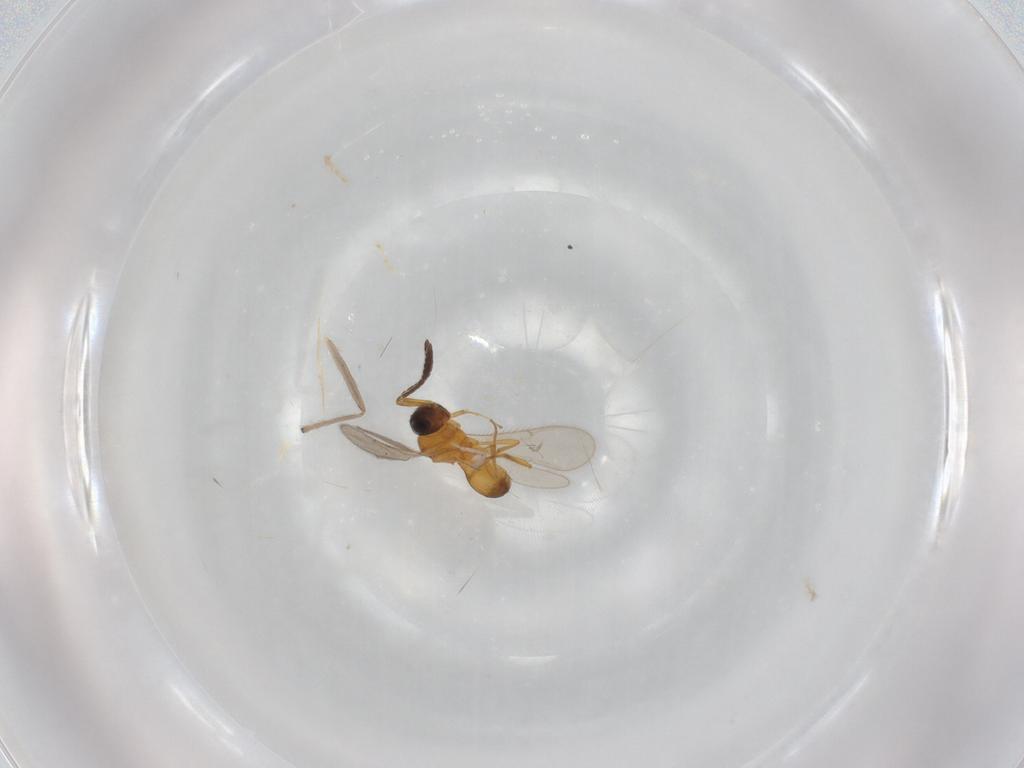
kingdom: Animalia
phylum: Arthropoda
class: Insecta
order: Hymenoptera
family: Scelionidae
